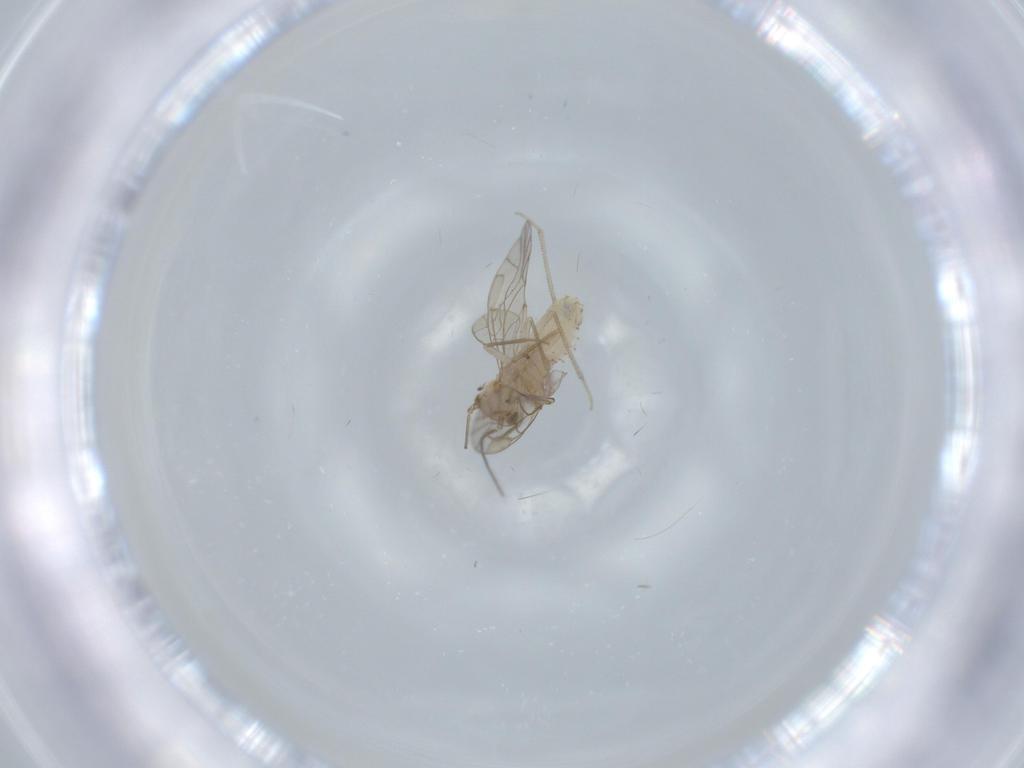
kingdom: Animalia
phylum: Arthropoda
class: Insecta
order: Psocodea
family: Lachesillidae
